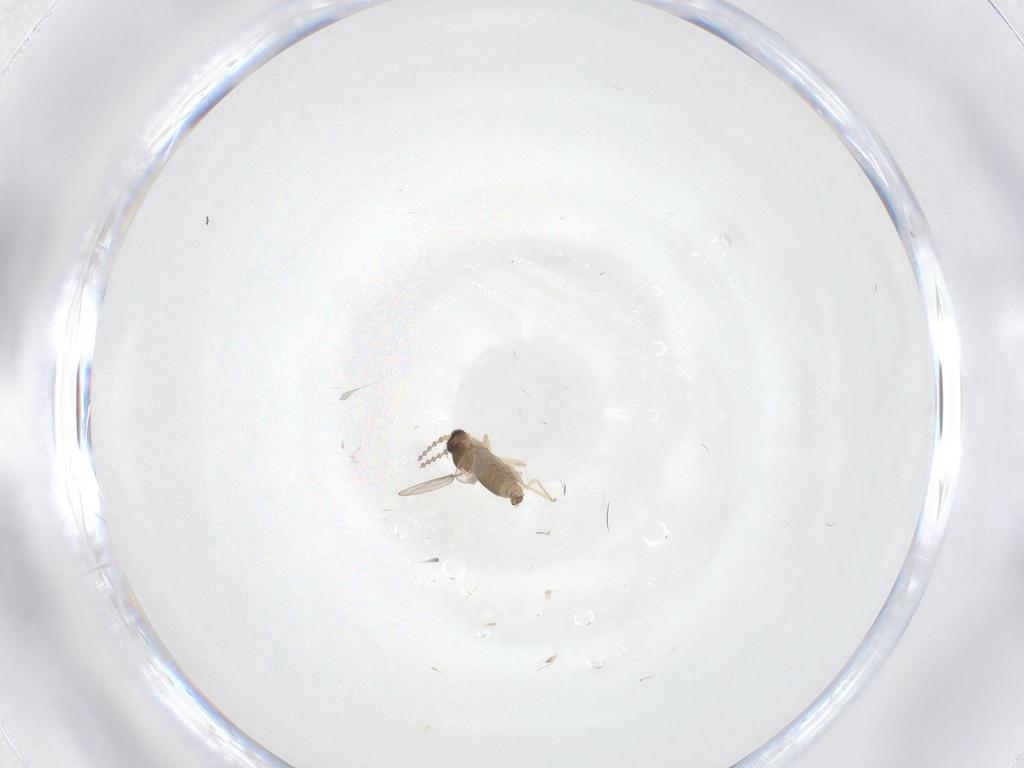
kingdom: Animalia
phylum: Arthropoda
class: Insecta
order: Diptera
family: Cecidomyiidae
